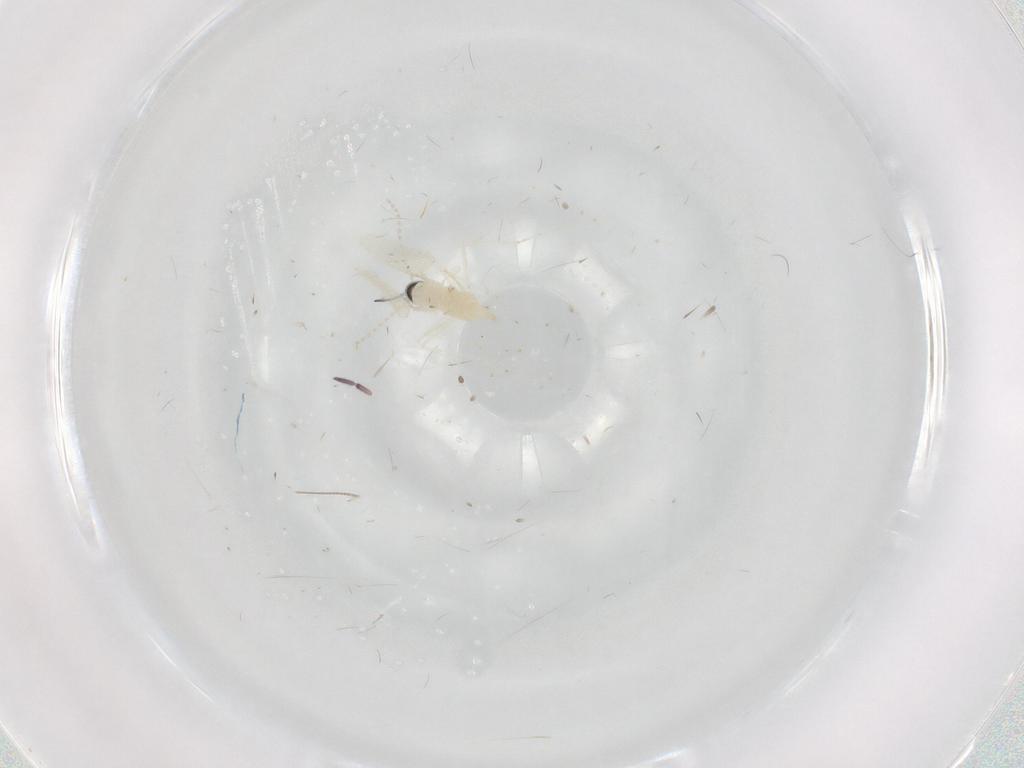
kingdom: Animalia
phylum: Arthropoda
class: Insecta
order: Diptera
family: Cecidomyiidae
